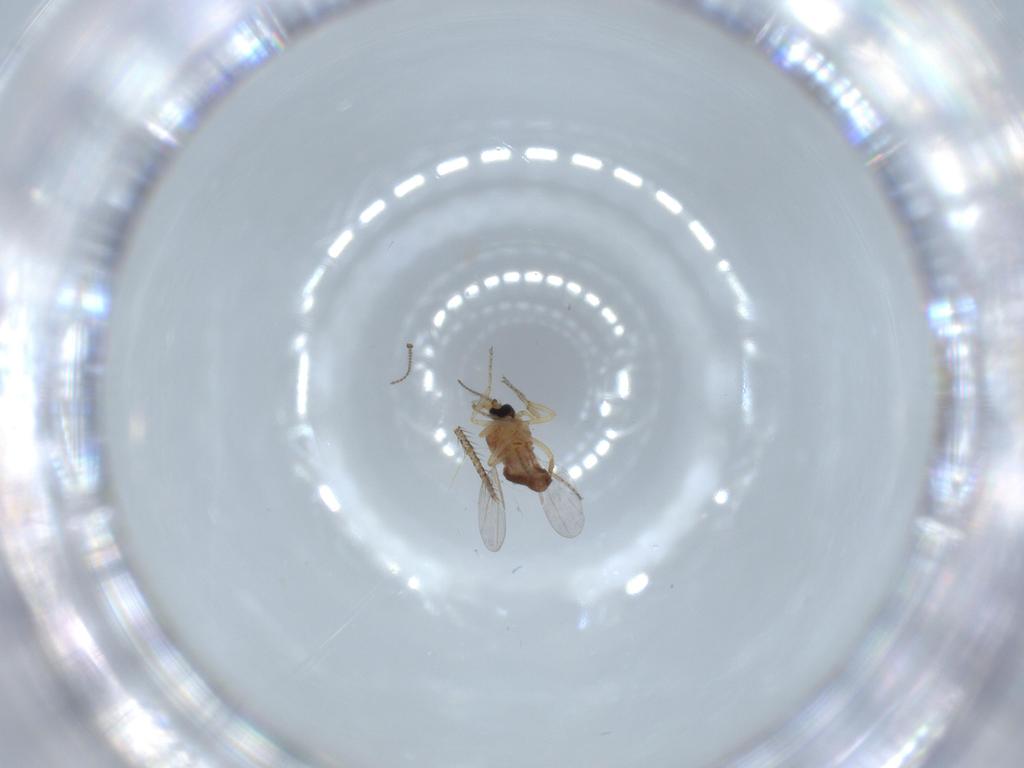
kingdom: Animalia
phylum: Arthropoda
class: Insecta
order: Diptera
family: Ceratopogonidae
